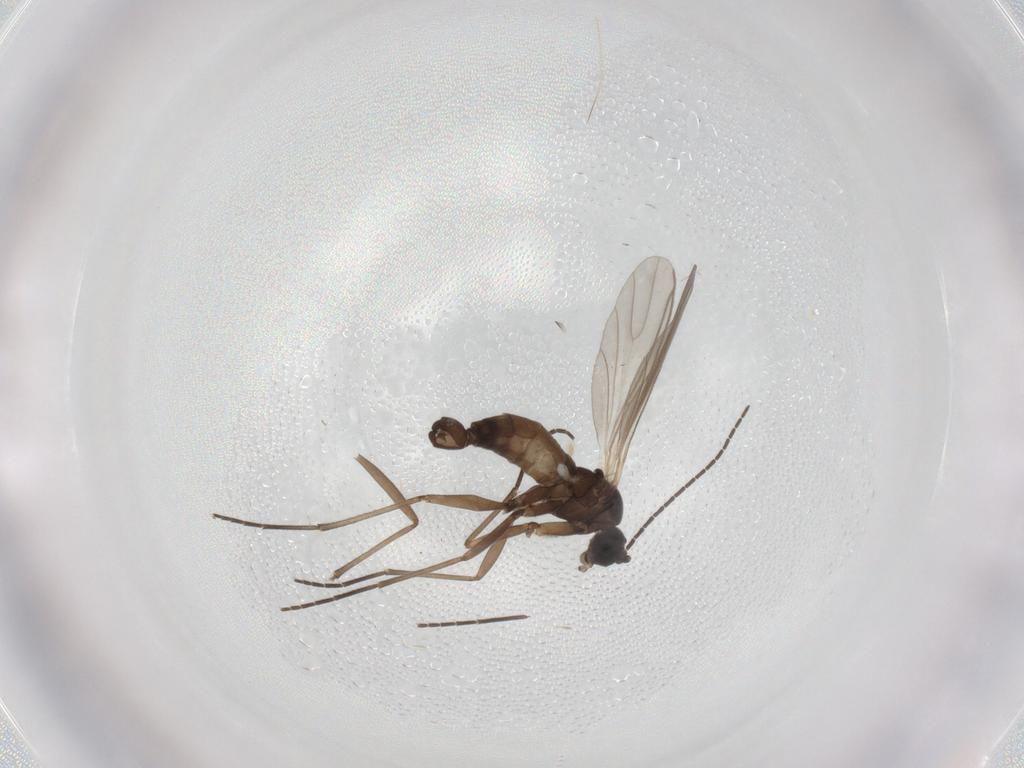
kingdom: Animalia
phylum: Arthropoda
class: Insecta
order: Diptera
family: Sciaridae
